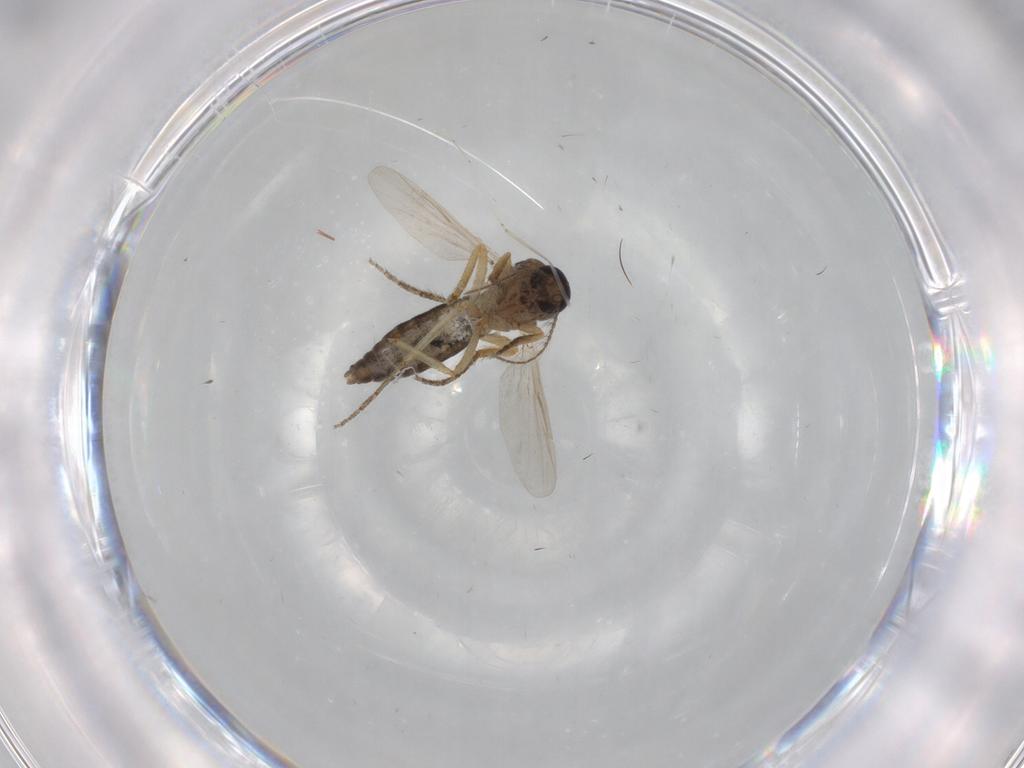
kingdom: Animalia
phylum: Arthropoda
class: Insecta
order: Diptera
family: Ceratopogonidae
